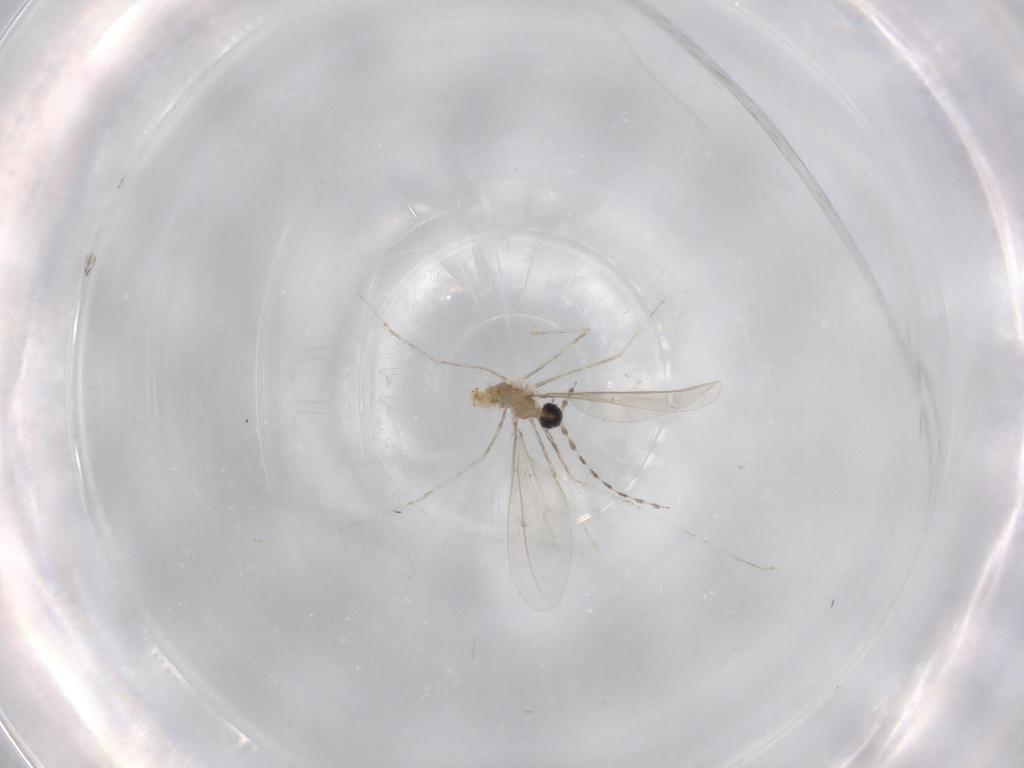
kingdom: Animalia
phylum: Arthropoda
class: Insecta
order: Diptera
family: Cecidomyiidae
